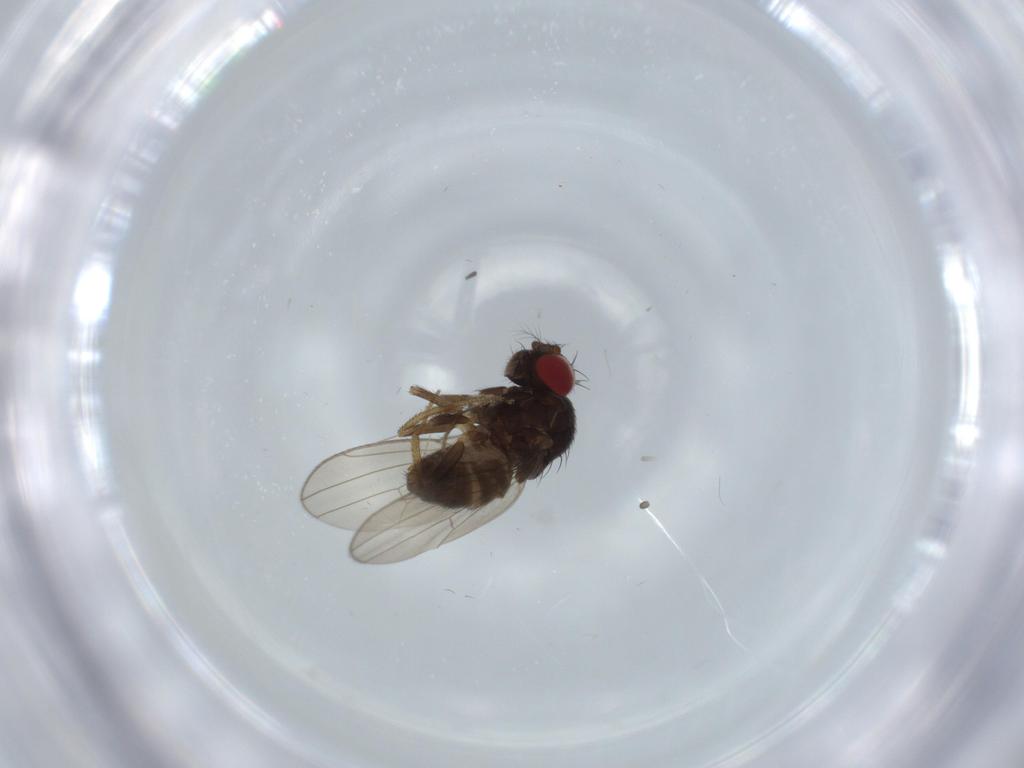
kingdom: Animalia
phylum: Arthropoda
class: Insecta
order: Diptera
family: Drosophilidae
